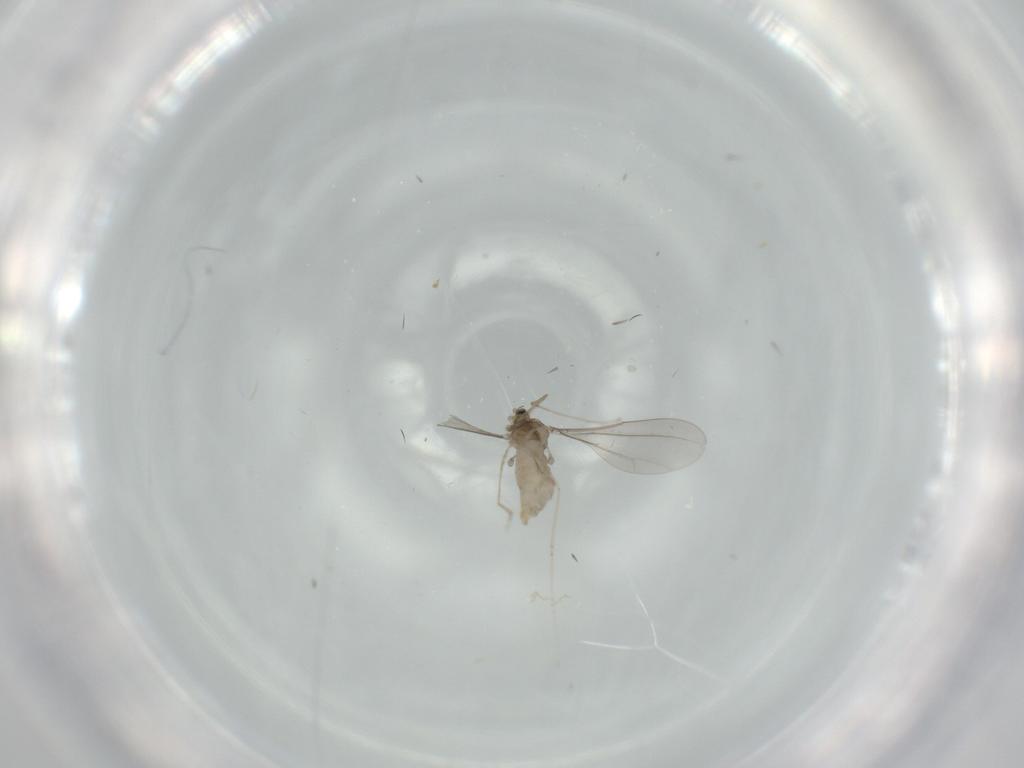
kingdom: Animalia
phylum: Arthropoda
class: Insecta
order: Diptera
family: Cecidomyiidae
